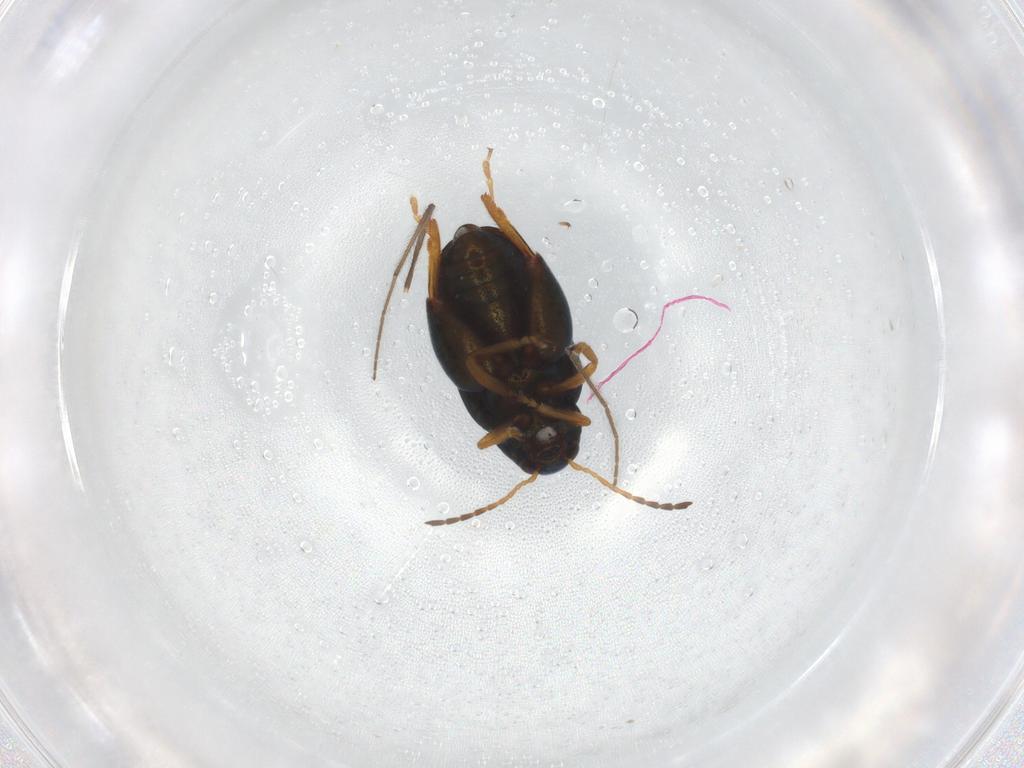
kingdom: Animalia
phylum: Arthropoda
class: Insecta
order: Coleoptera
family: Chrysomelidae
